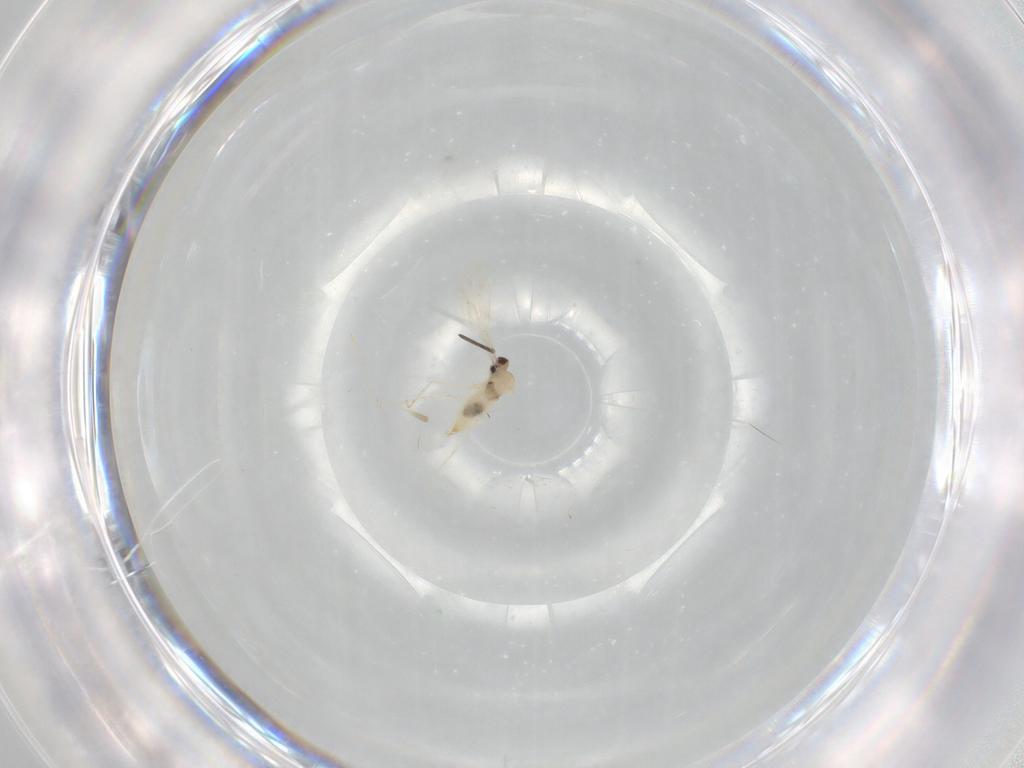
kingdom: Animalia
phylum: Arthropoda
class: Insecta
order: Diptera
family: Cecidomyiidae
